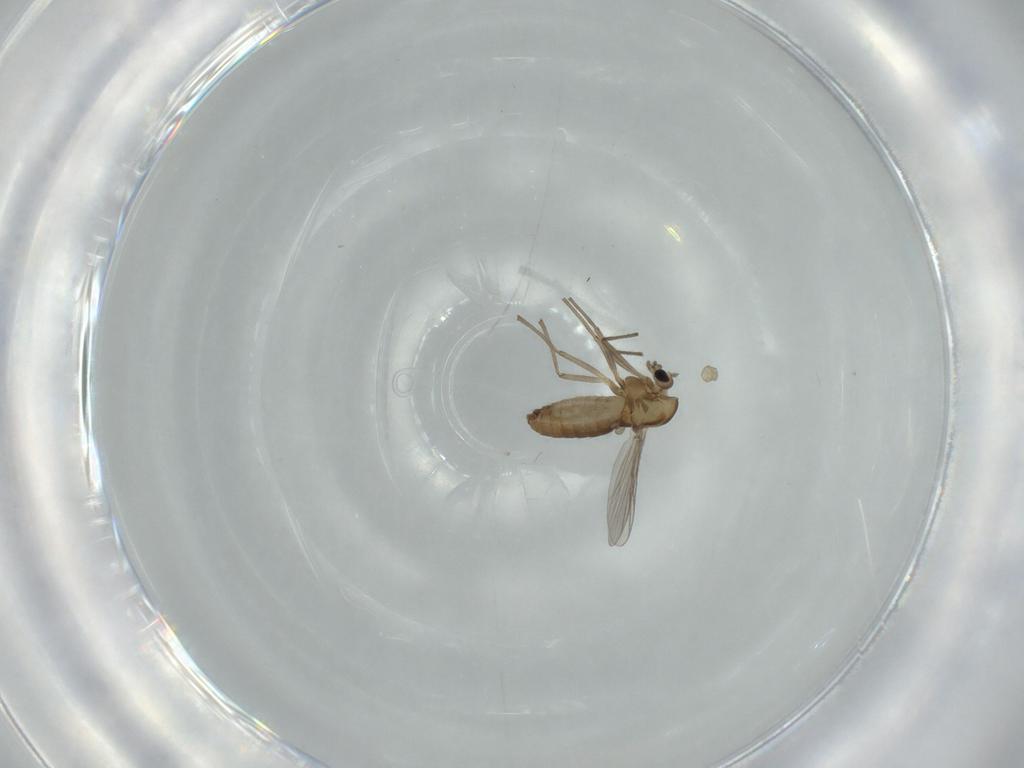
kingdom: Animalia
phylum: Arthropoda
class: Insecta
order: Diptera
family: Chironomidae
